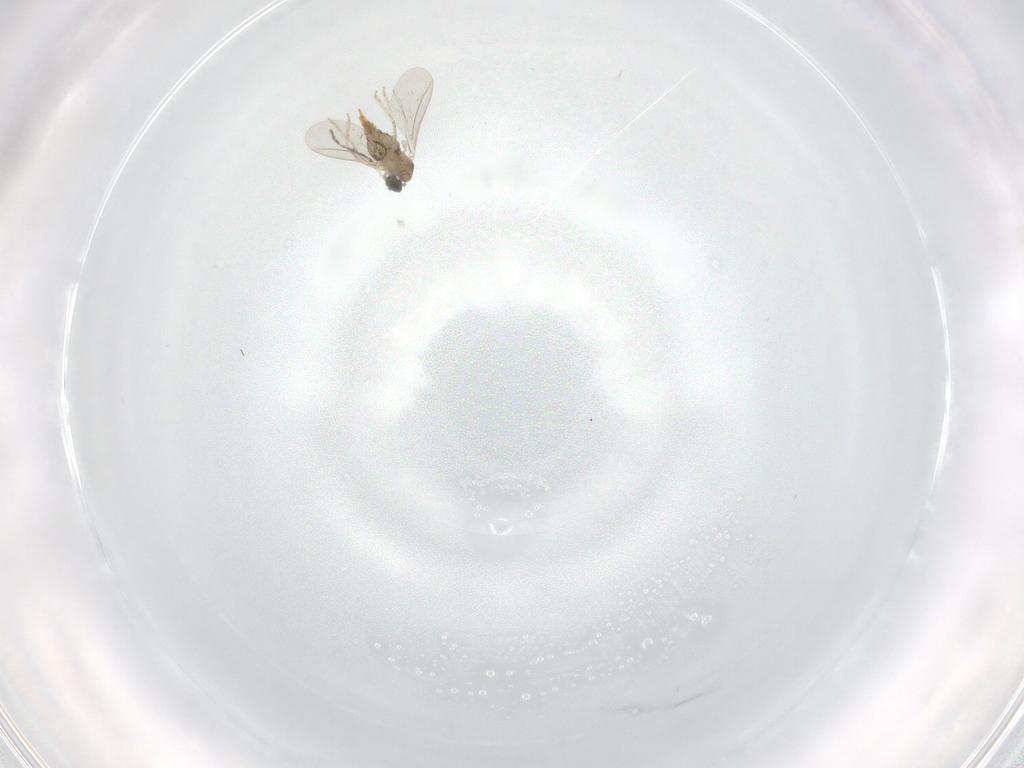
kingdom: Animalia
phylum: Arthropoda
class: Insecta
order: Diptera
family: Cecidomyiidae
